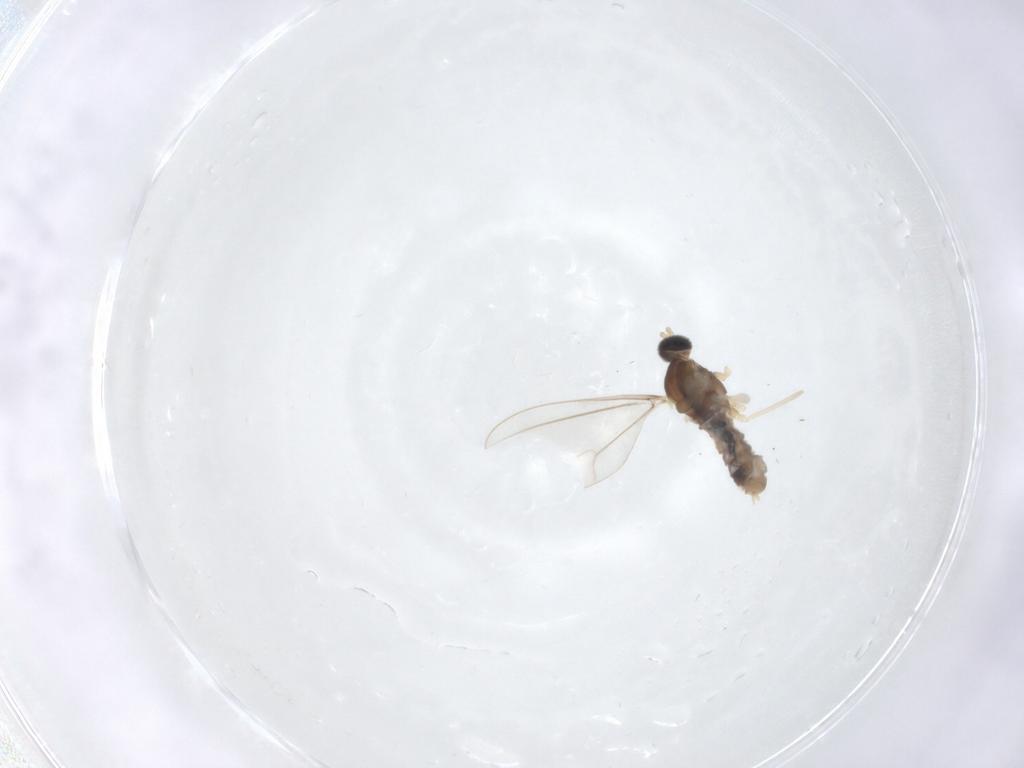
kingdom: Animalia
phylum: Arthropoda
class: Insecta
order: Diptera
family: Cecidomyiidae
